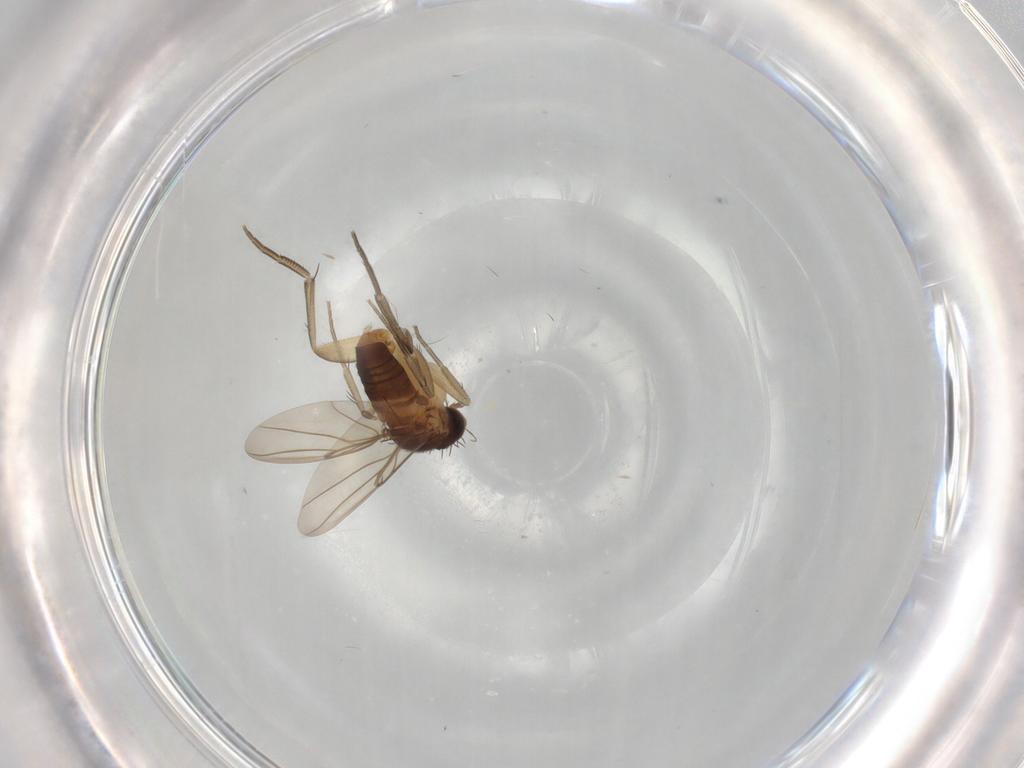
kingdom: Animalia
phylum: Arthropoda
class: Insecta
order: Diptera
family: Phoridae
